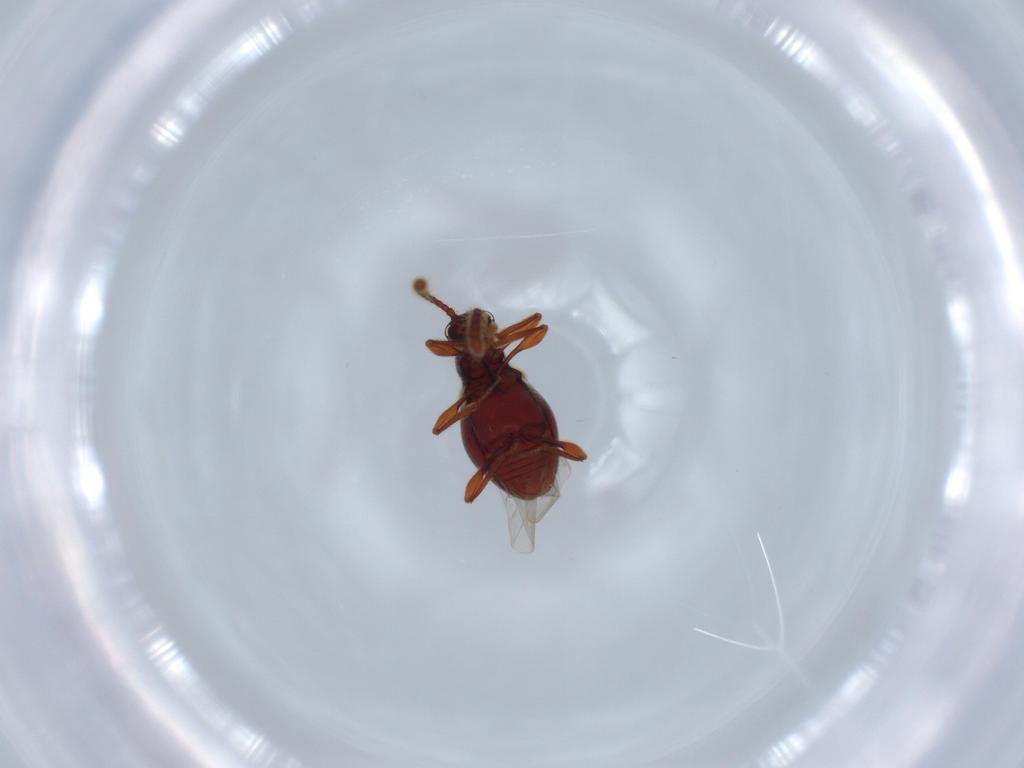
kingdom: Animalia
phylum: Arthropoda
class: Insecta
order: Coleoptera
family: Staphylinidae
